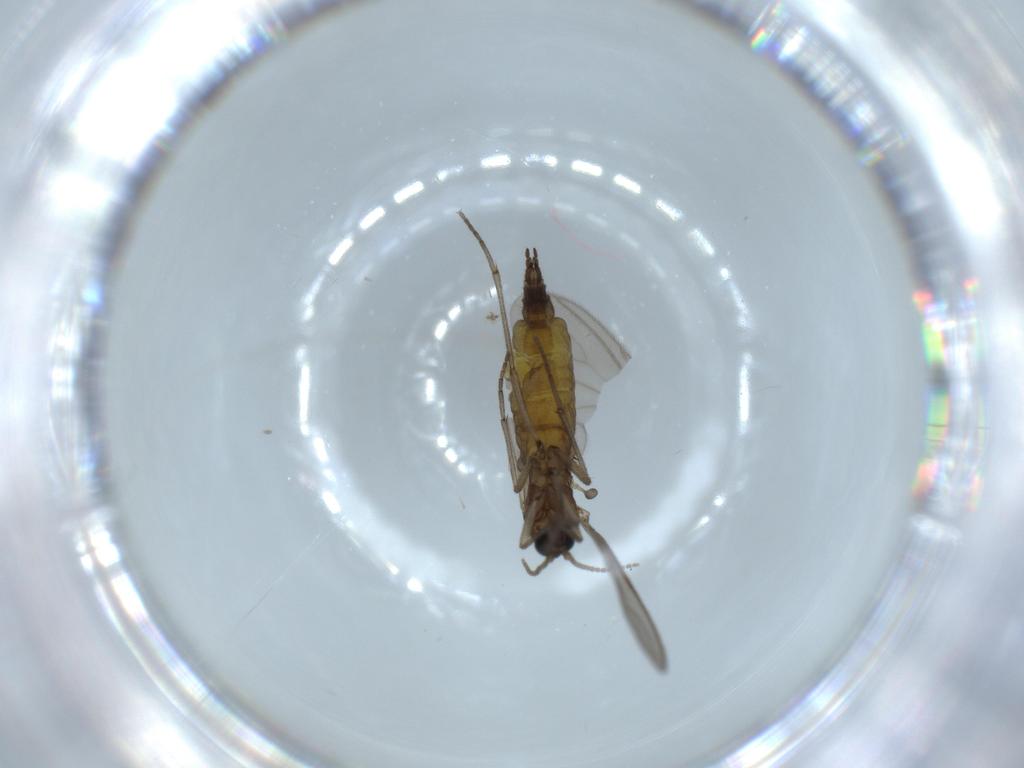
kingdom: Animalia
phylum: Arthropoda
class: Insecta
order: Diptera
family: Sciaridae
